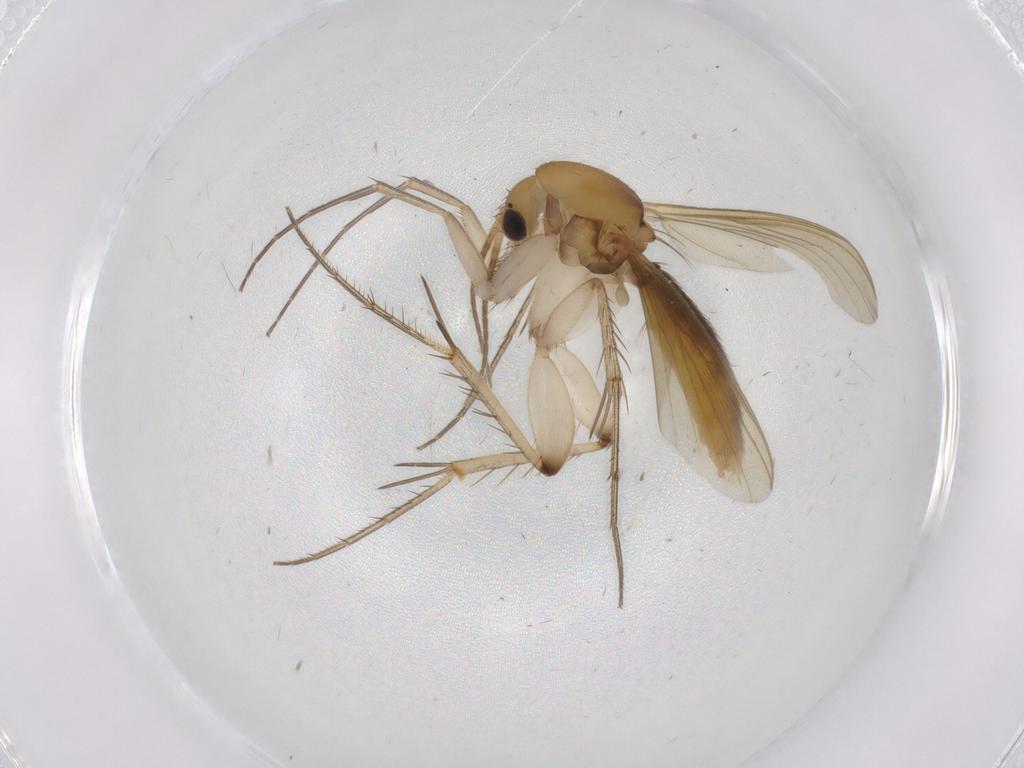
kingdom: Animalia
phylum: Arthropoda
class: Insecta
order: Diptera
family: Mycetophilidae
